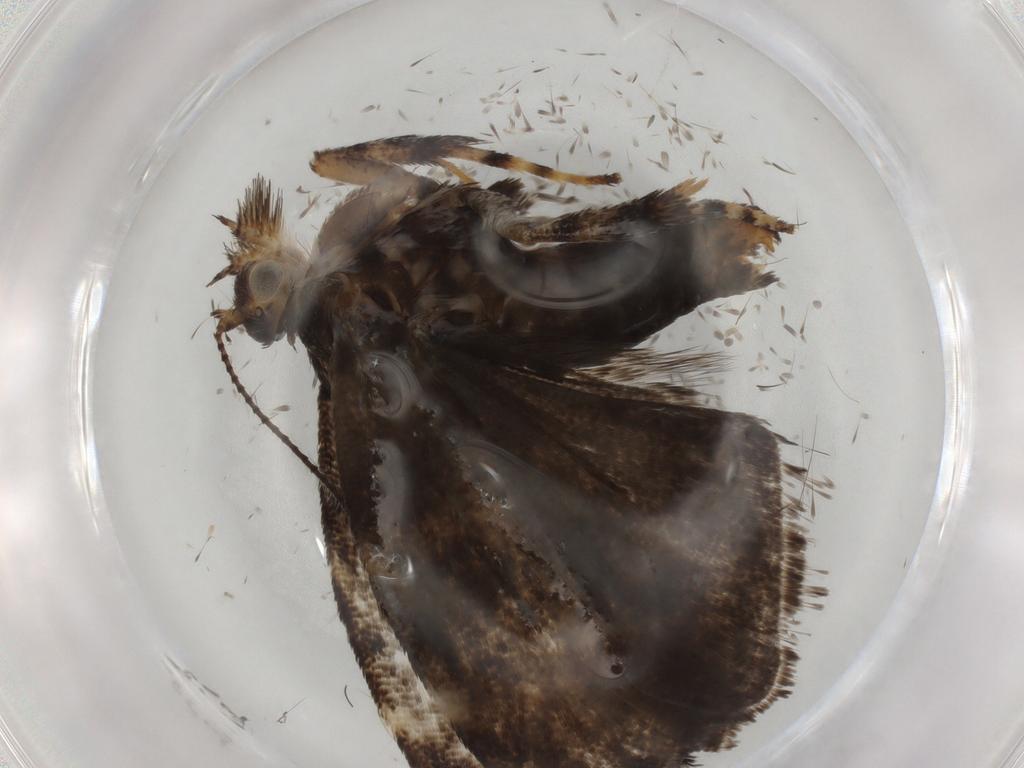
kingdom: Animalia
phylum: Arthropoda
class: Insecta
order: Lepidoptera
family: Choreutidae
